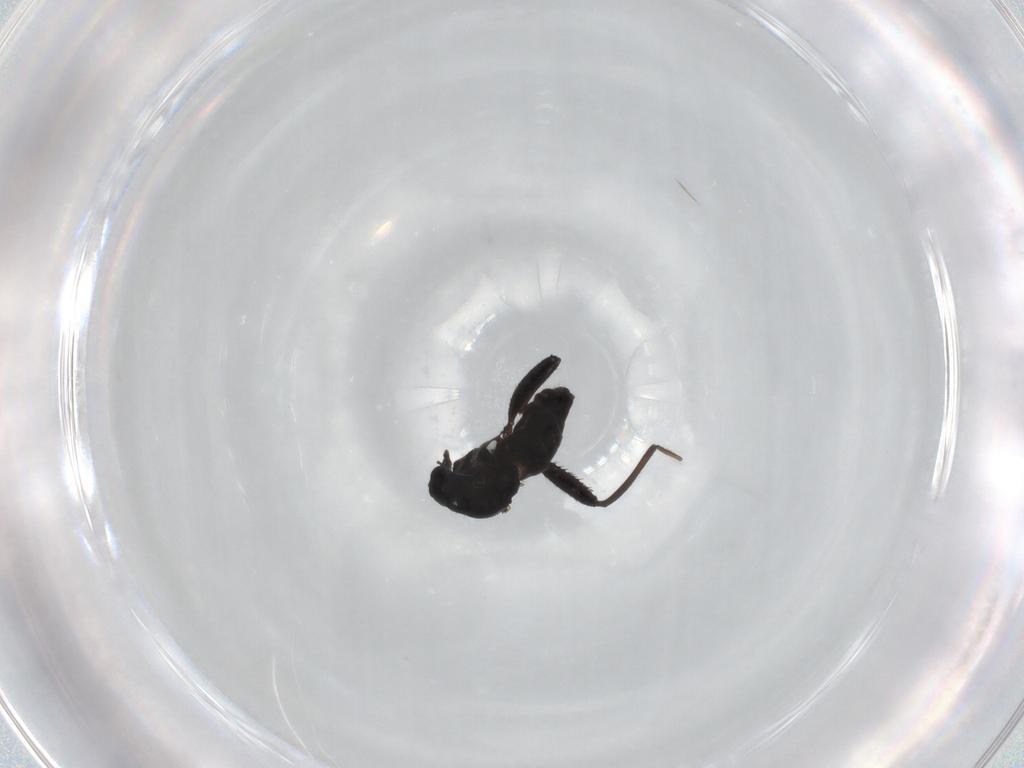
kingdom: Animalia
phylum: Arthropoda
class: Insecta
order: Diptera
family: Ceratopogonidae
